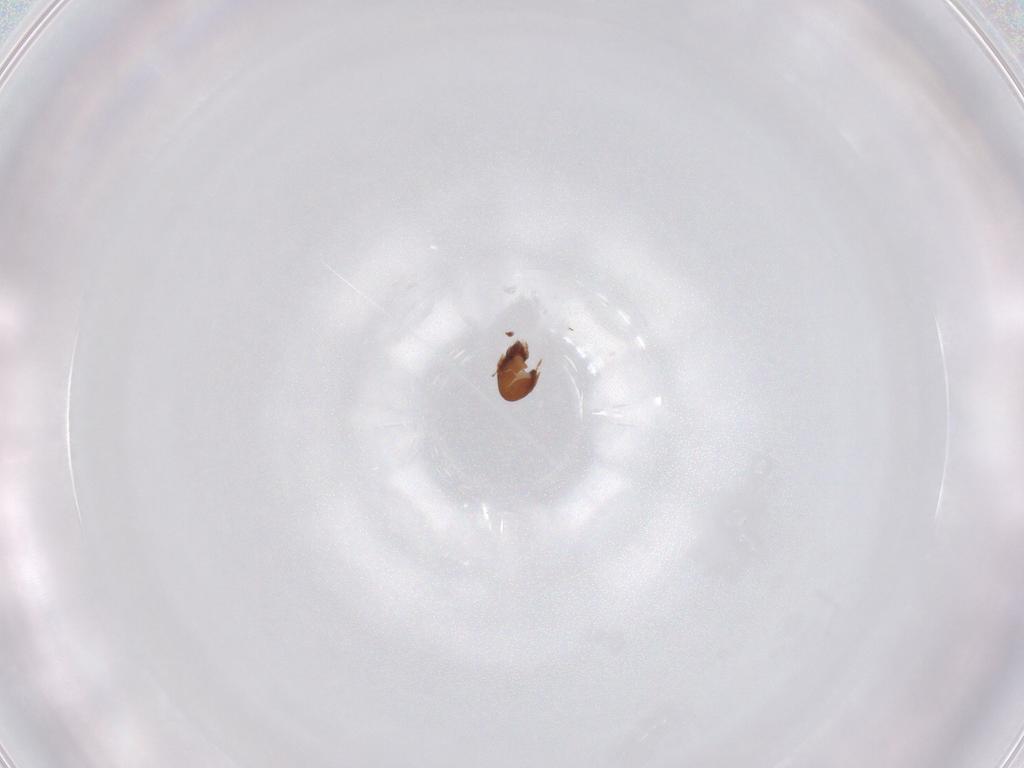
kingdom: Animalia
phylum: Arthropoda
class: Arachnida
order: Sarcoptiformes
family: Ceratozetidae
